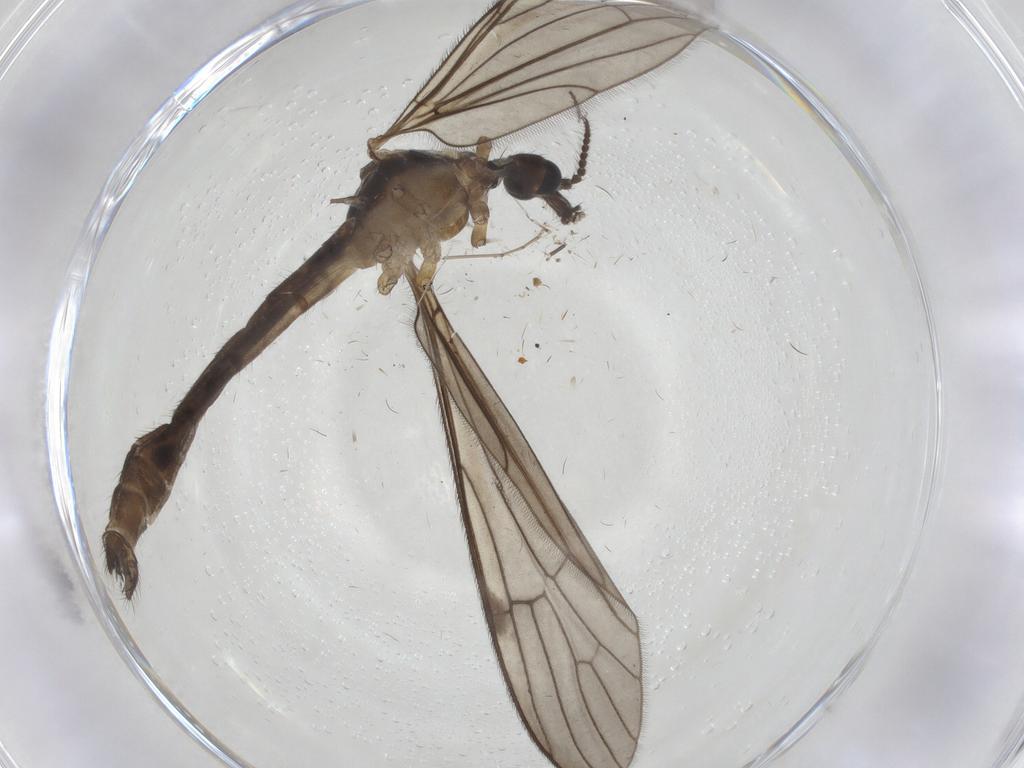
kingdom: Animalia
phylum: Arthropoda
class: Insecta
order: Diptera
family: Limoniidae
